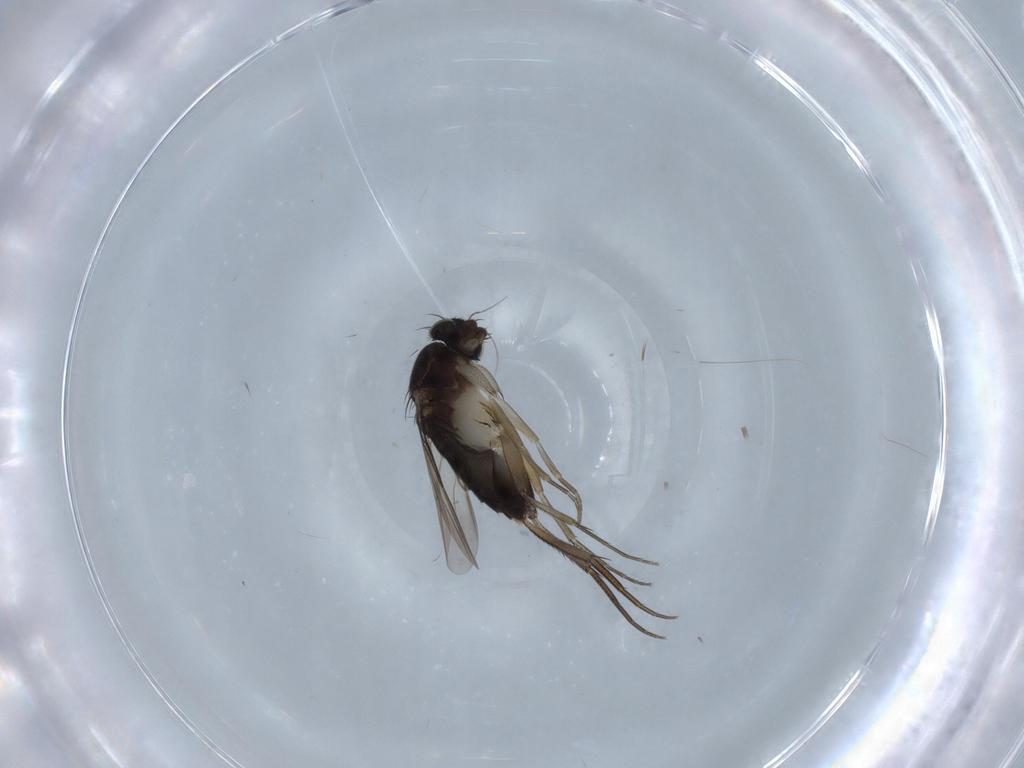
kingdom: Animalia
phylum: Arthropoda
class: Insecta
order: Diptera
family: Phoridae
